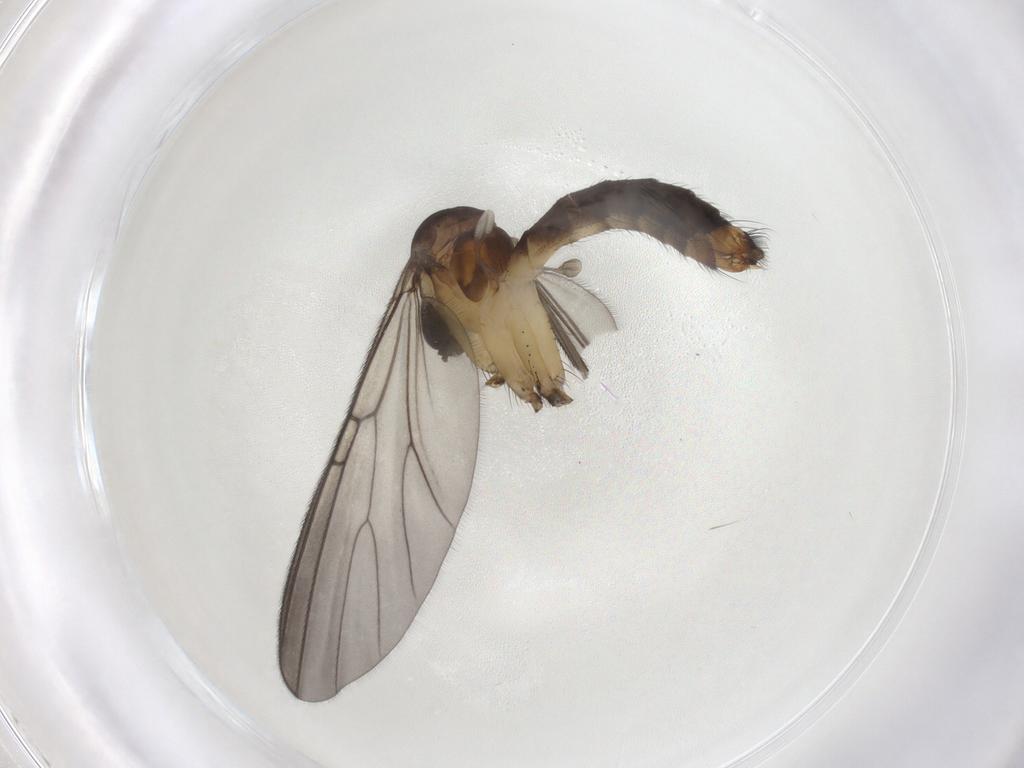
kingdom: Animalia
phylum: Arthropoda
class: Insecta
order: Diptera
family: Mycetophilidae
